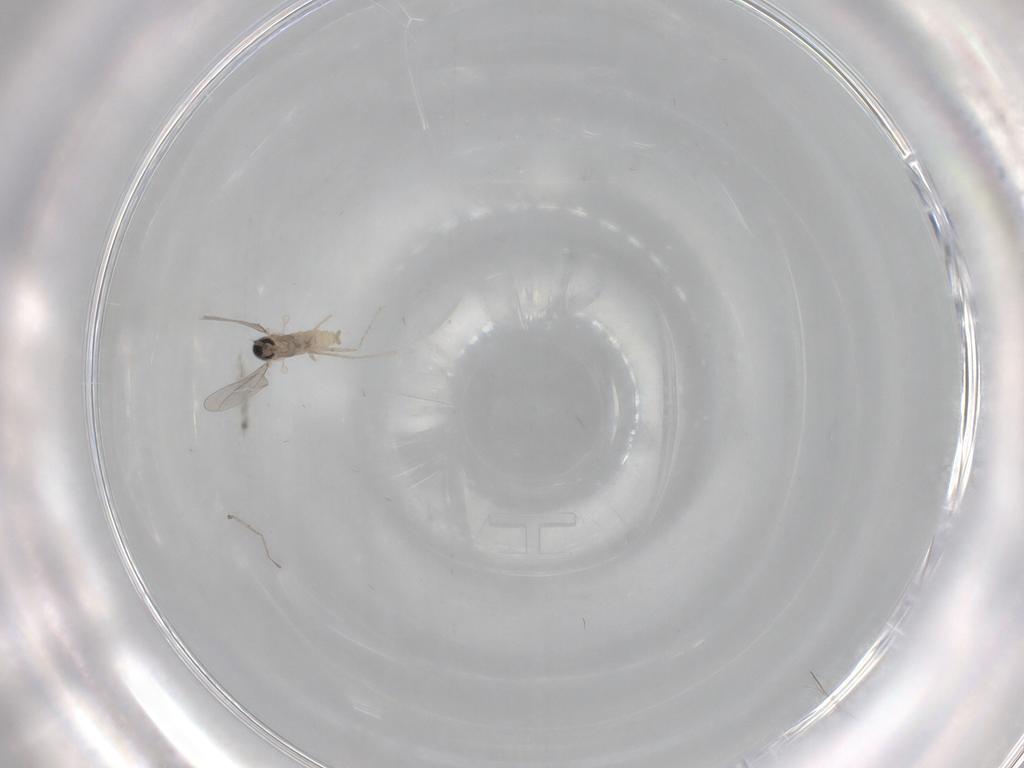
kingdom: Animalia
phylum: Arthropoda
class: Insecta
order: Diptera
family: Cecidomyiidae
